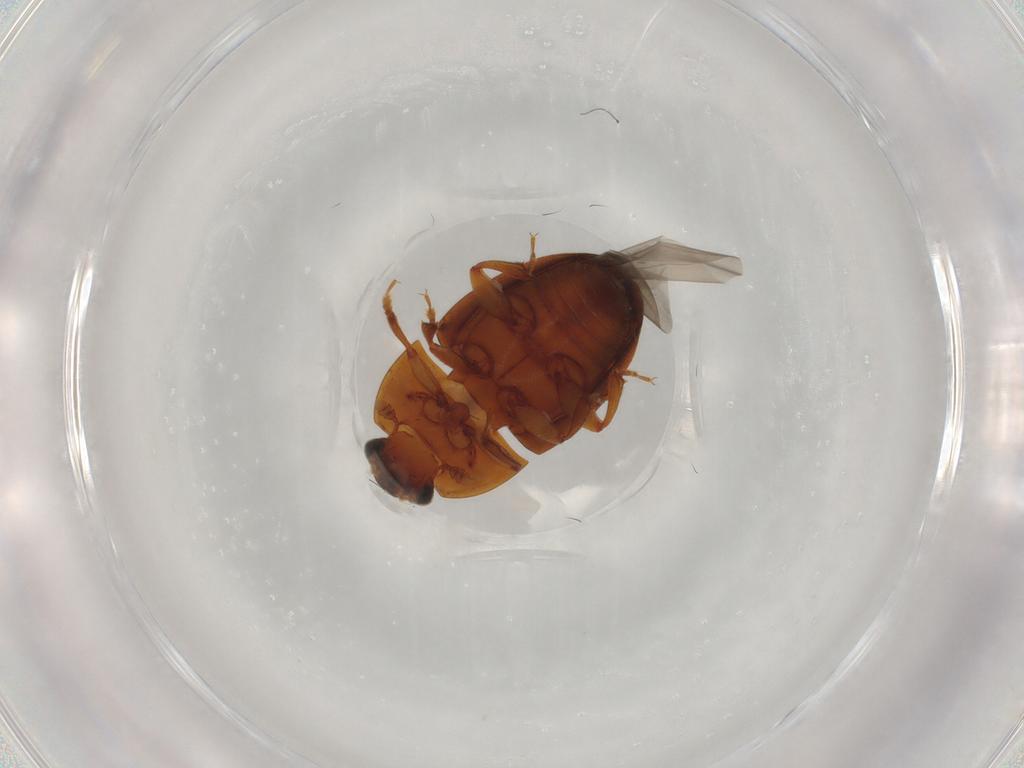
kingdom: Animalia
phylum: Arthropoda
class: Insecta
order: Coleoptera
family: Nitidulidae
